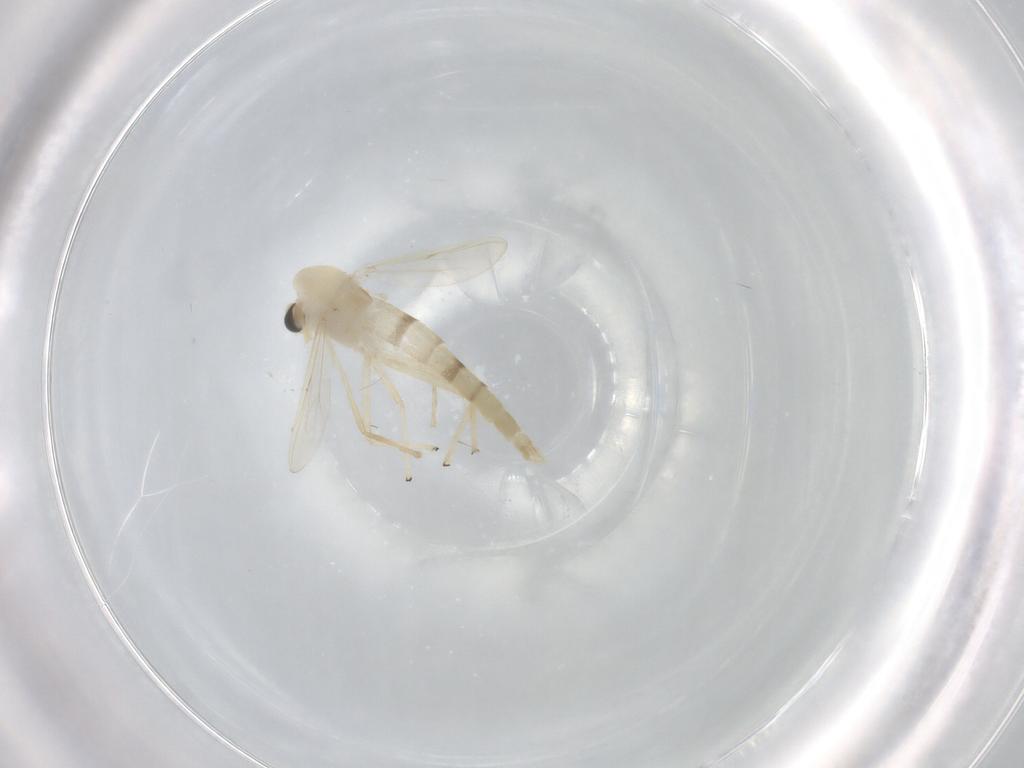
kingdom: Animalia
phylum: Arthropoda
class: Insecta
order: Diptera
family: Chironomidae
